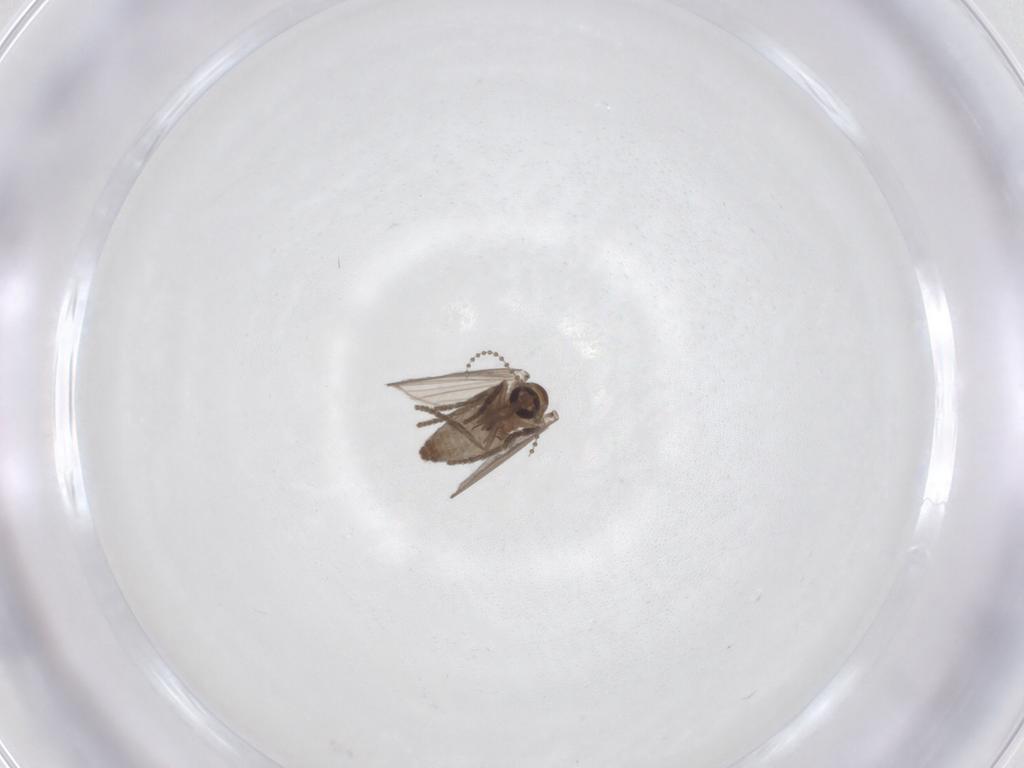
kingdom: Animalia
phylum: Arthropoda
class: Insecta
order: Diptera
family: Psychodidae
